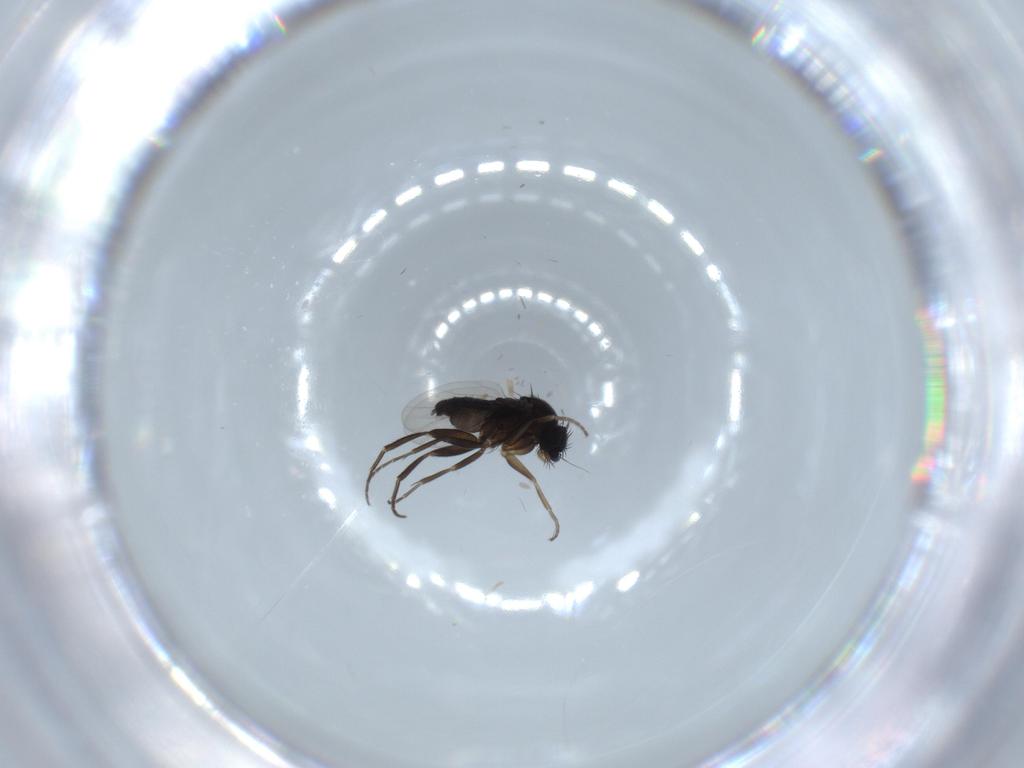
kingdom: Animalia
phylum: Arthropoda
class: Insecta
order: Diptera
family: Phoridae
